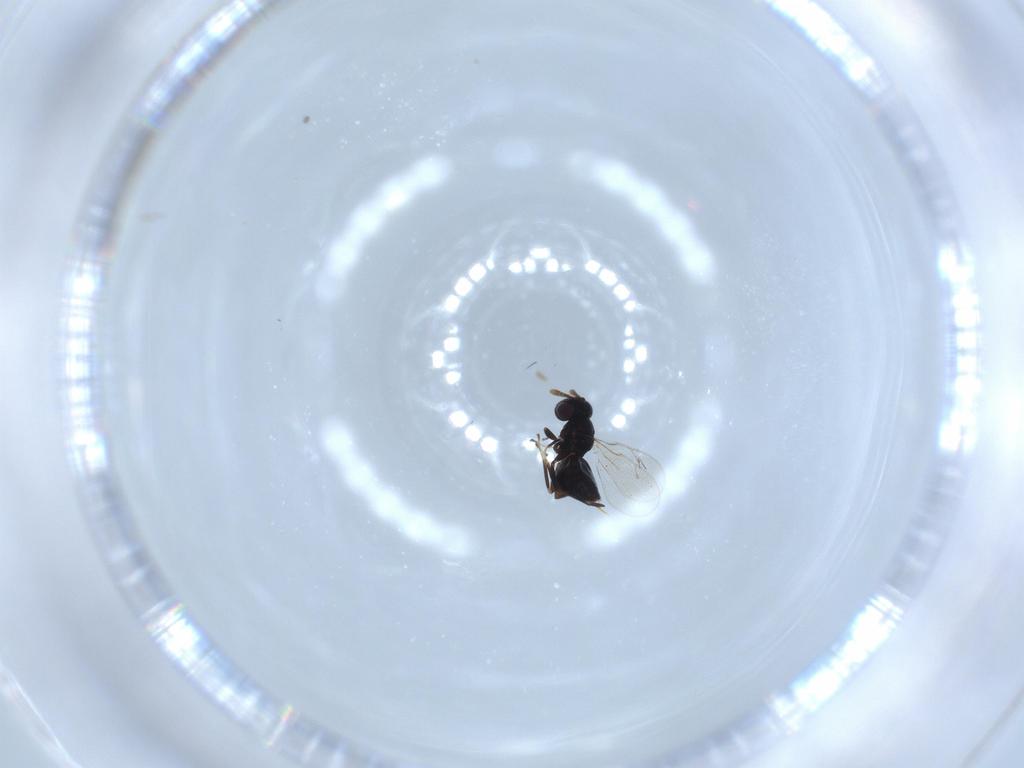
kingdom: Animalia
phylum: Arthropoda
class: Insecta
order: Hymenoptera
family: Pteromalidae
